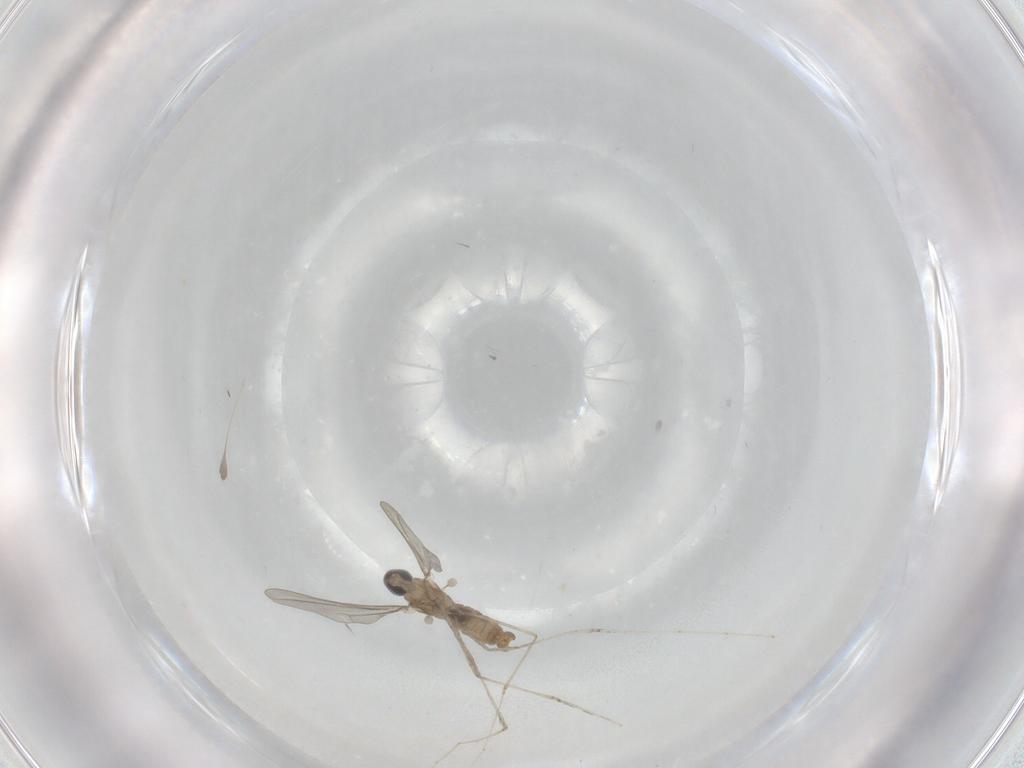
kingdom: Animalia
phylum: Arthropoda
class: Insecta
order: Diptera
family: Cecidomyiidae
